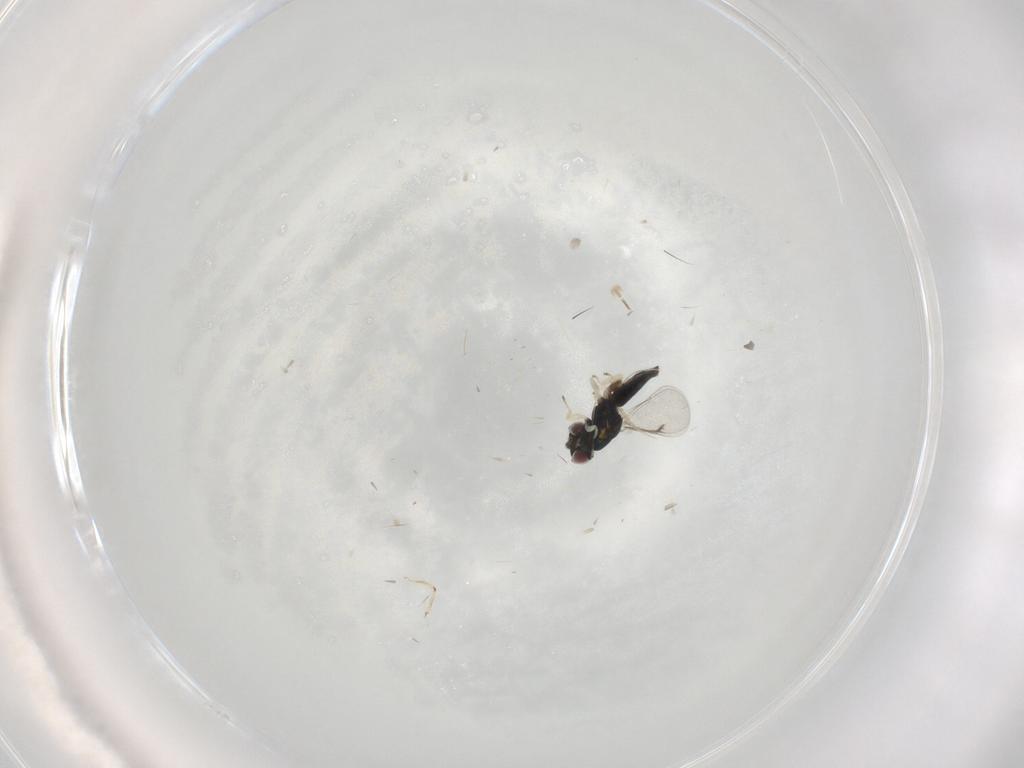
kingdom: Animalia
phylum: Arthropoda
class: Insecta
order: Hymenoptera
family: Formicidae
